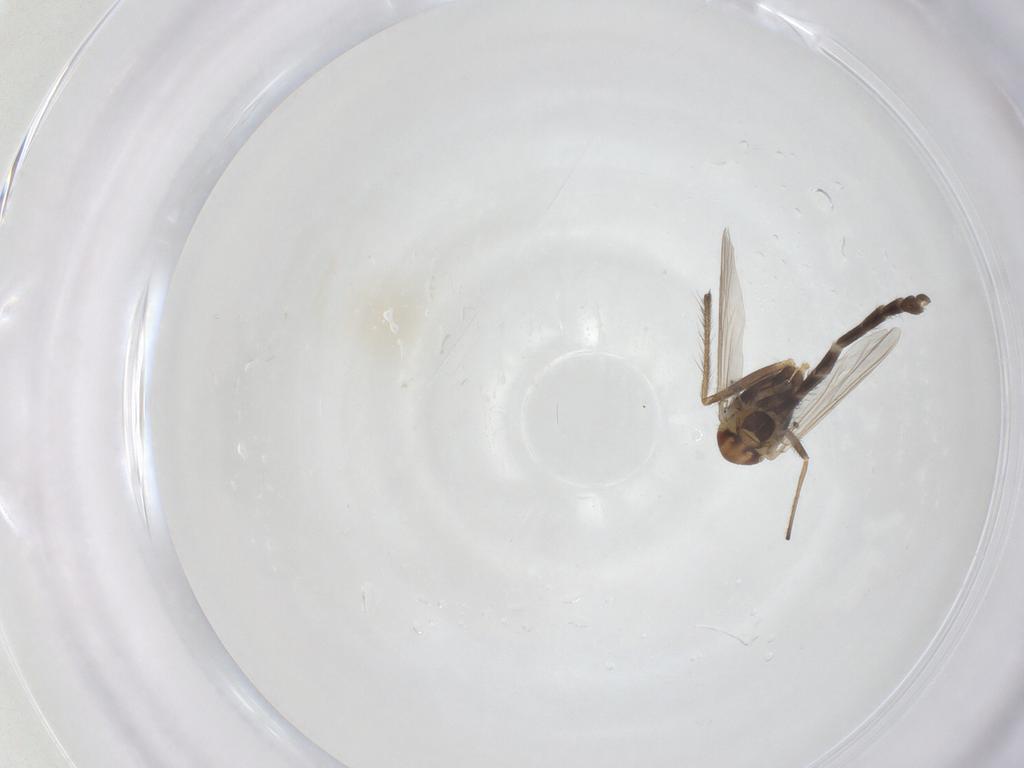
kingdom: Animalia
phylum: Arthropoda
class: Insecta
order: Diptera
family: Chironomidae
